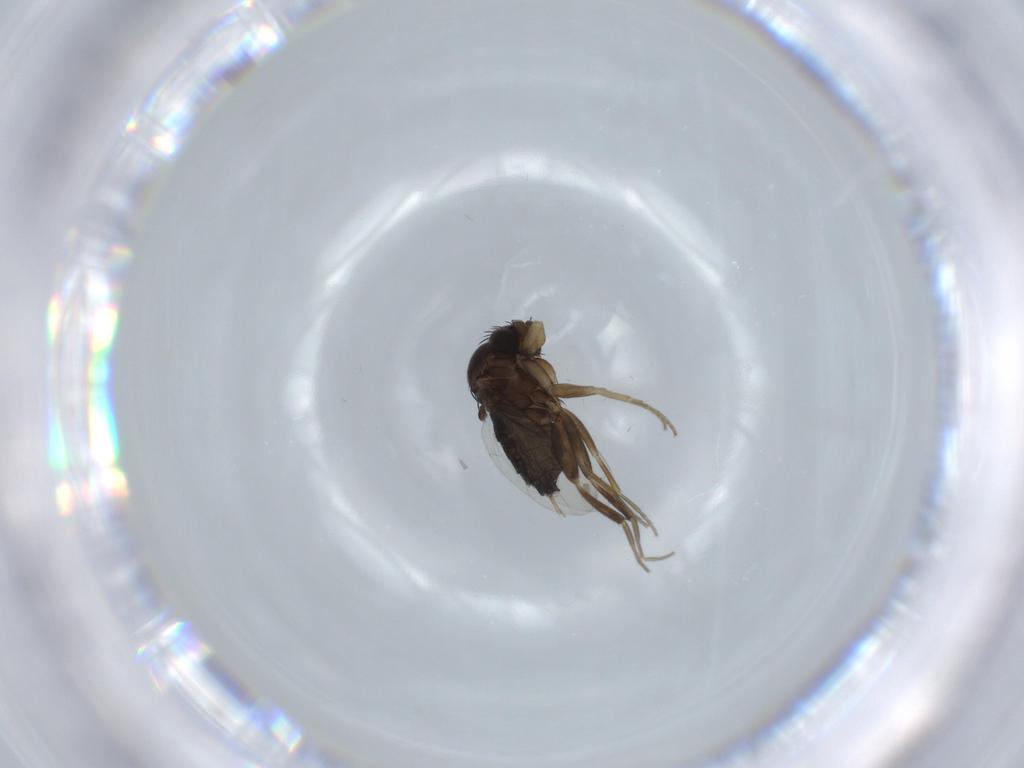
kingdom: Animalia
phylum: Arthropoda
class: Insecta
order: Diptera
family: Phoridae
